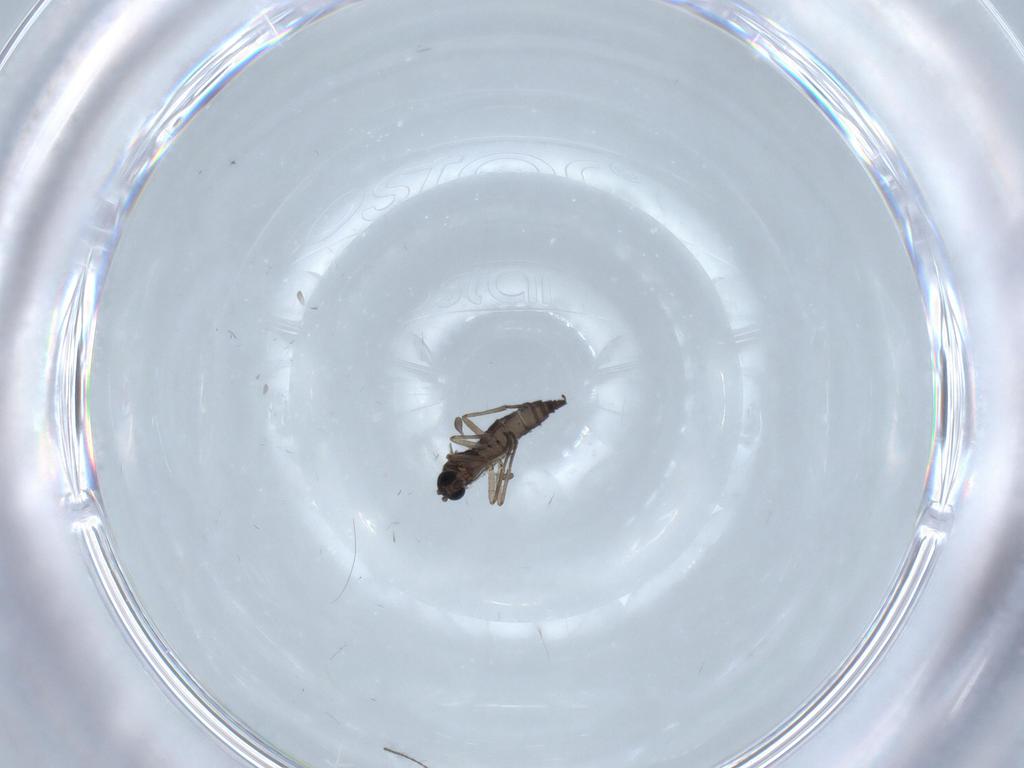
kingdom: Animalia
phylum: Arthropoda
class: Insecta
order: Diptera
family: Sciaridae
